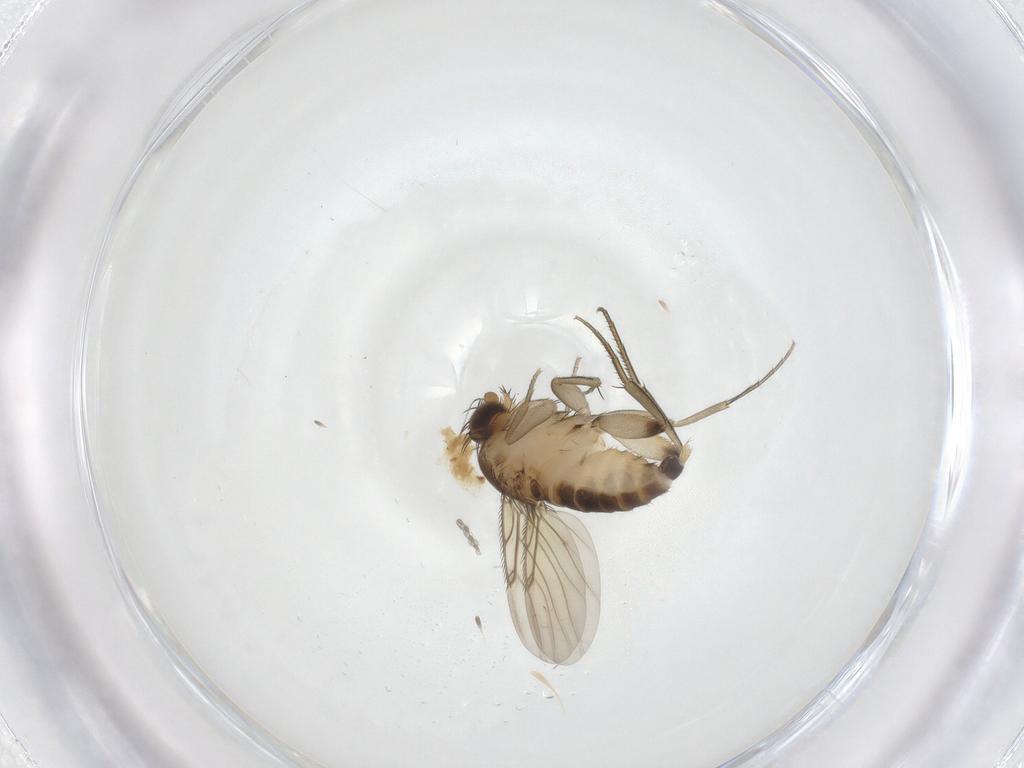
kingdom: Animalia
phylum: Arthropoda
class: Insecta
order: Diptera
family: Phoridae
